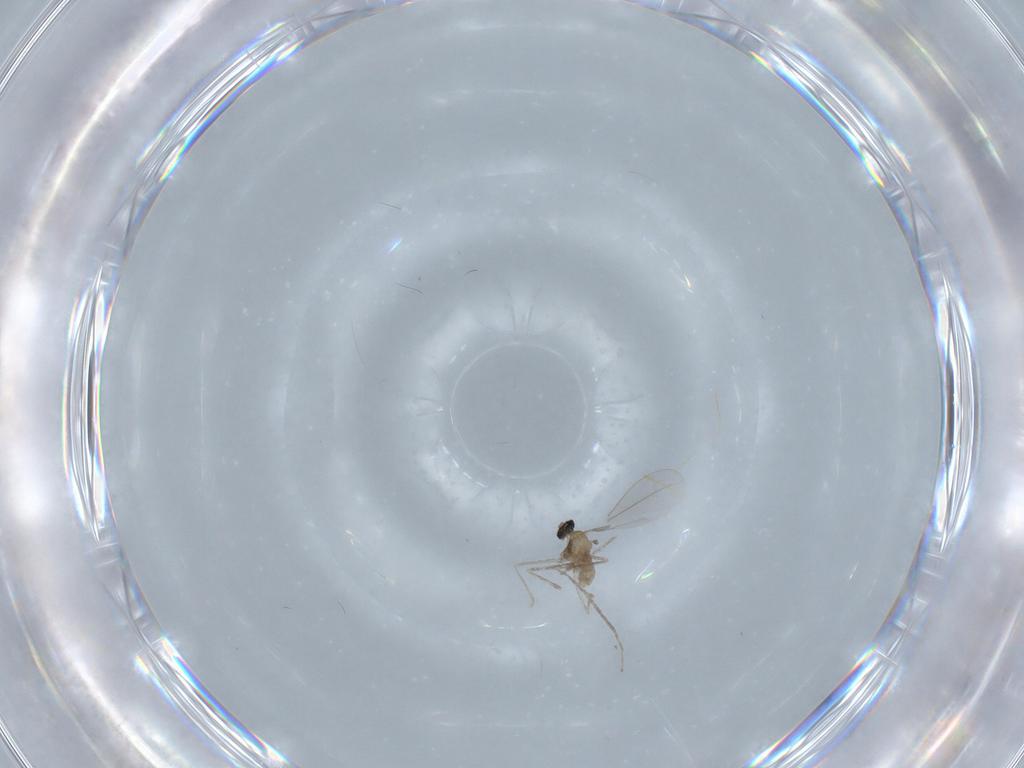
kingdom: Animalia
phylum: Arthropoda
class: Insecta
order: Diptera
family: Cecidomyiidae
